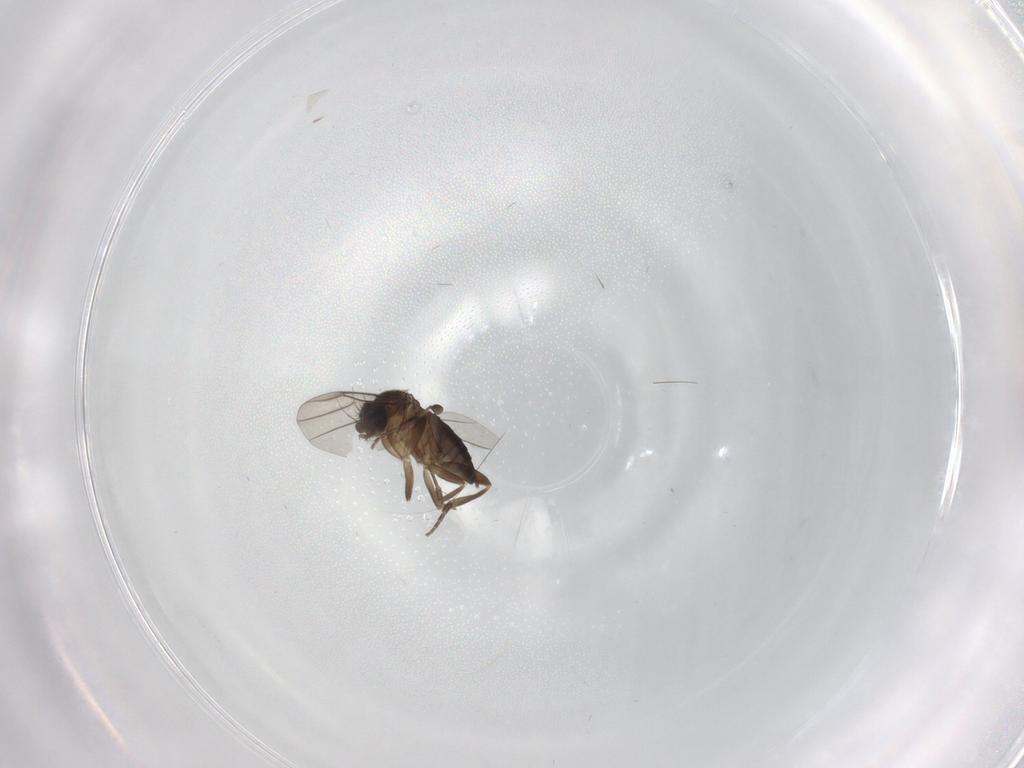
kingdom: Animalia
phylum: Arthropoda
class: Insecta
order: Diptera
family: Phoridae
